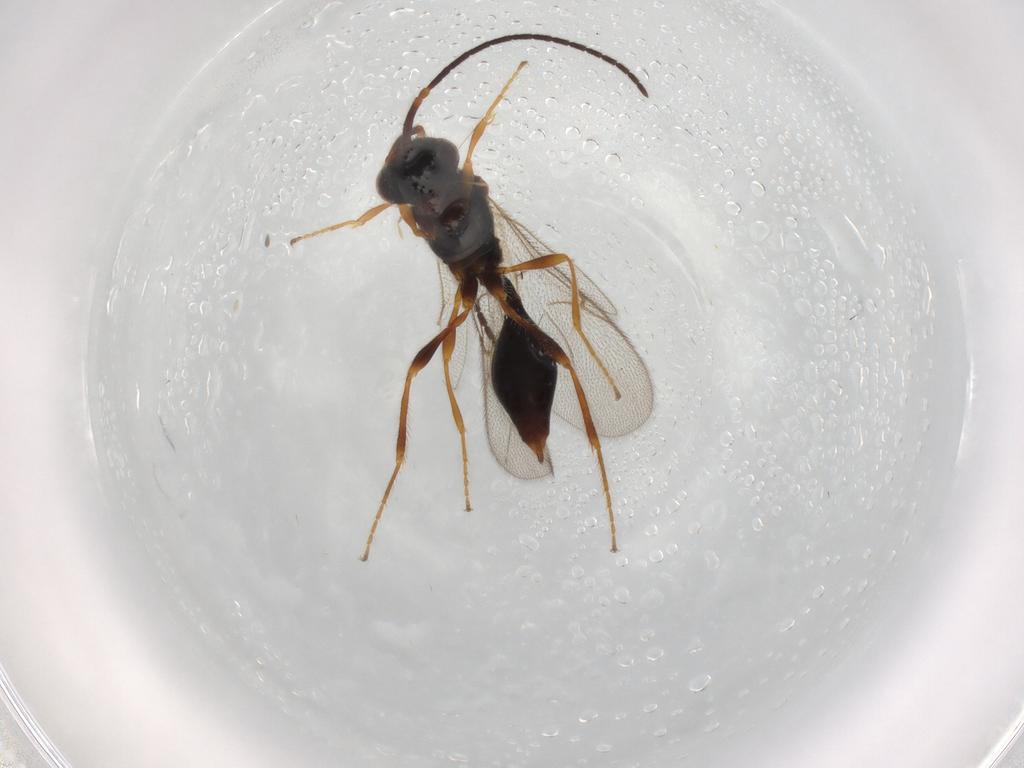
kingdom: Animalia
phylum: Arthropoda
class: Insecta
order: Hymenoptera
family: Diapriidae
